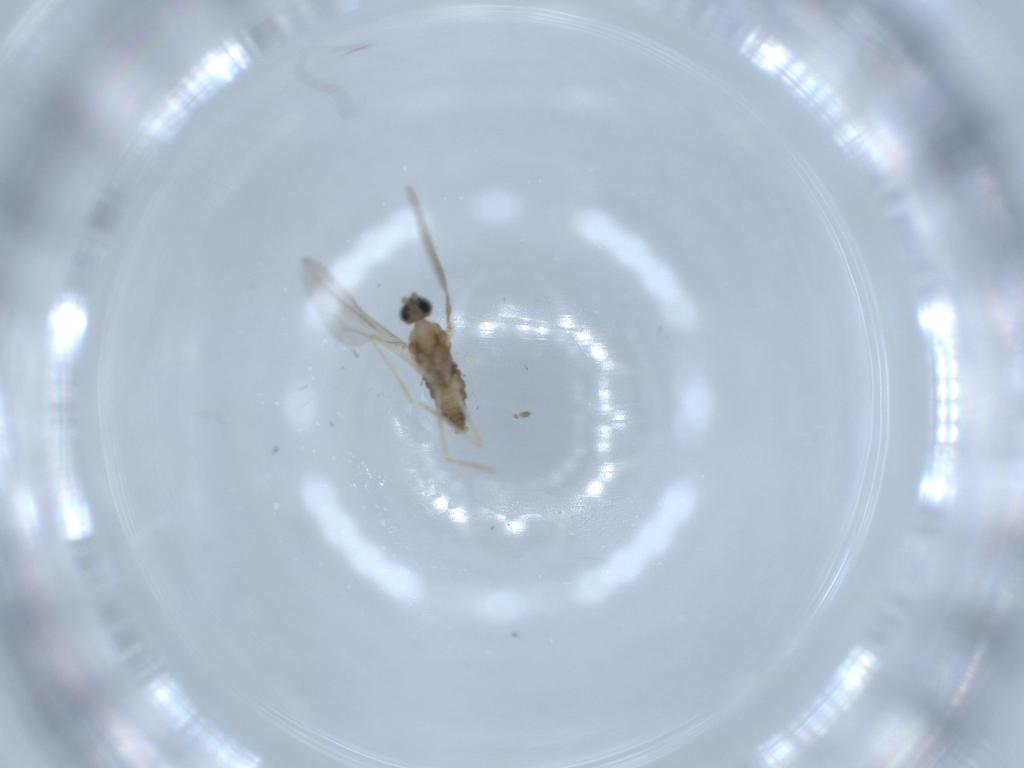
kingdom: Animalia
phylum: Arthropoda
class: Insecta
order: Diptera
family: Cecidomyiidae
